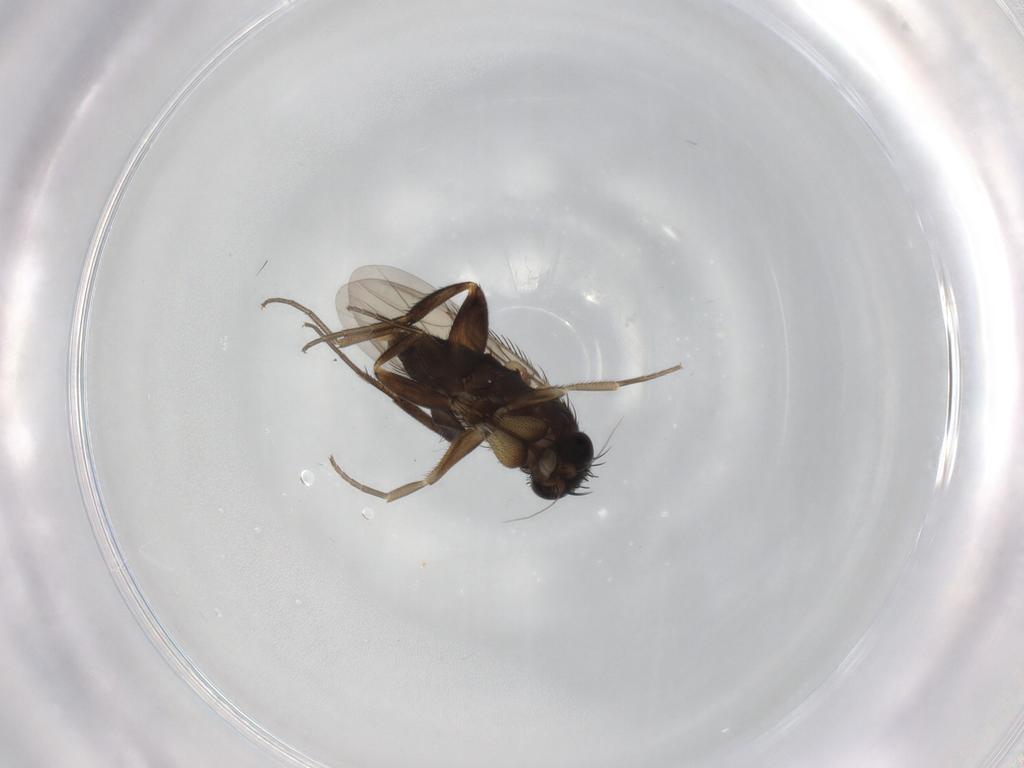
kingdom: Animalia
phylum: Arthropoda
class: Insecta
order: Diptera
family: Phoridae
